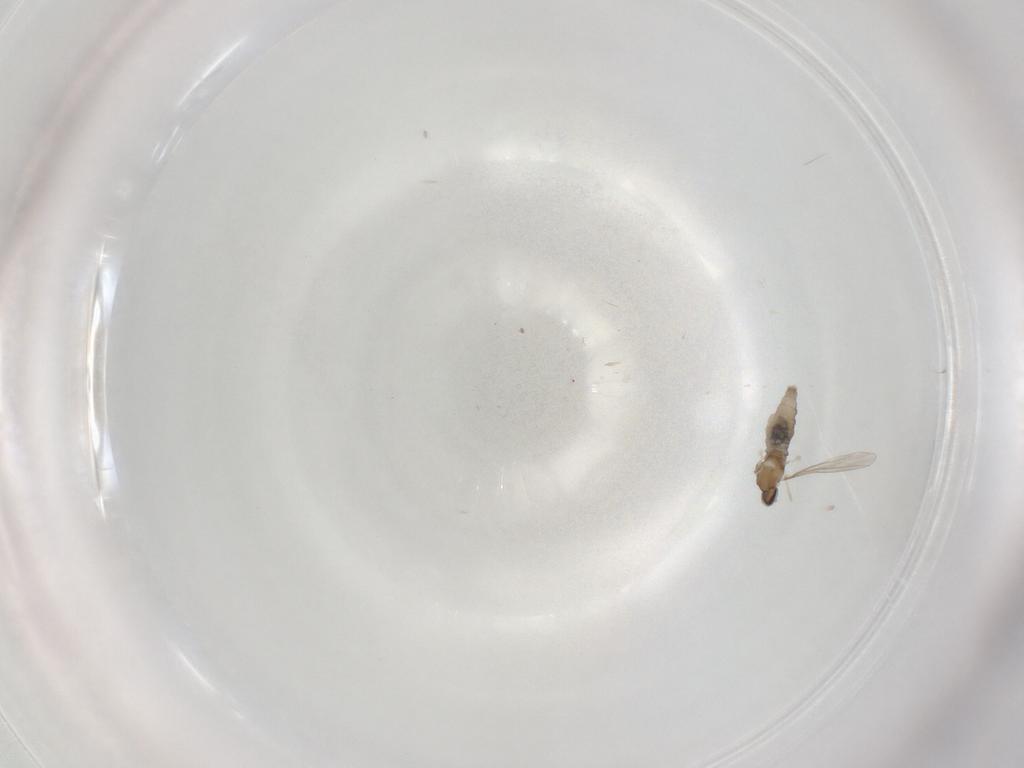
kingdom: Animalia
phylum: Arthropoda
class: Insecta
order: Diptera
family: Cecidomyiidae
